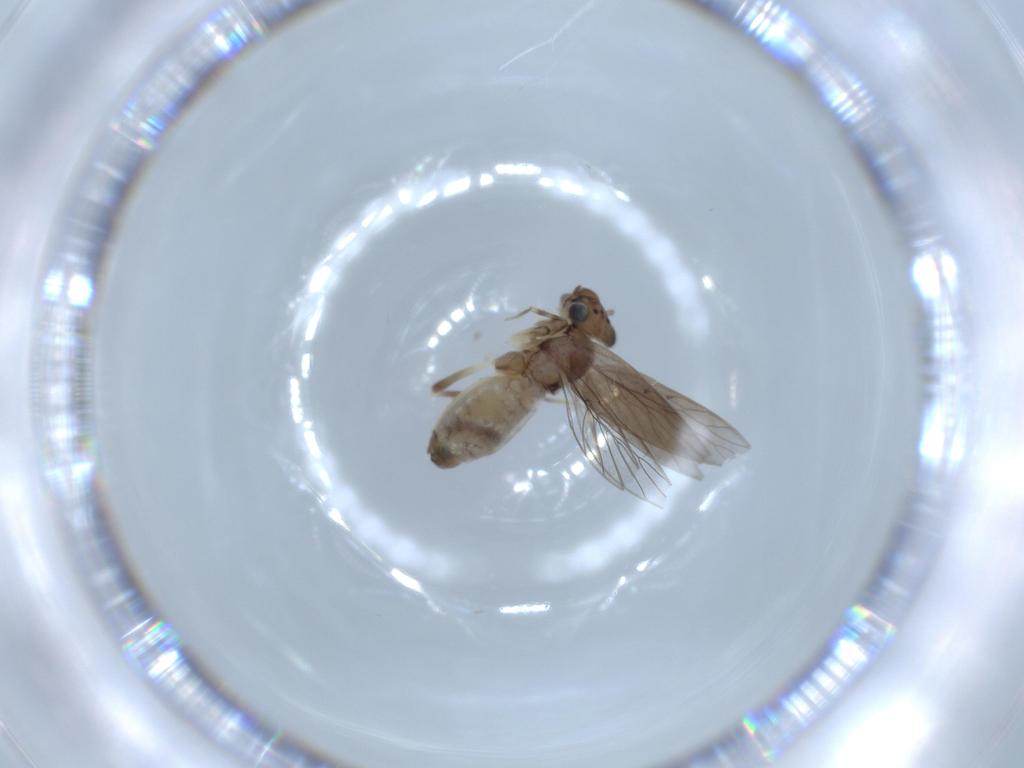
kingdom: Animalia
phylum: Arthropoda
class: Insecta
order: Psocodea
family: Lepidopsocidae
